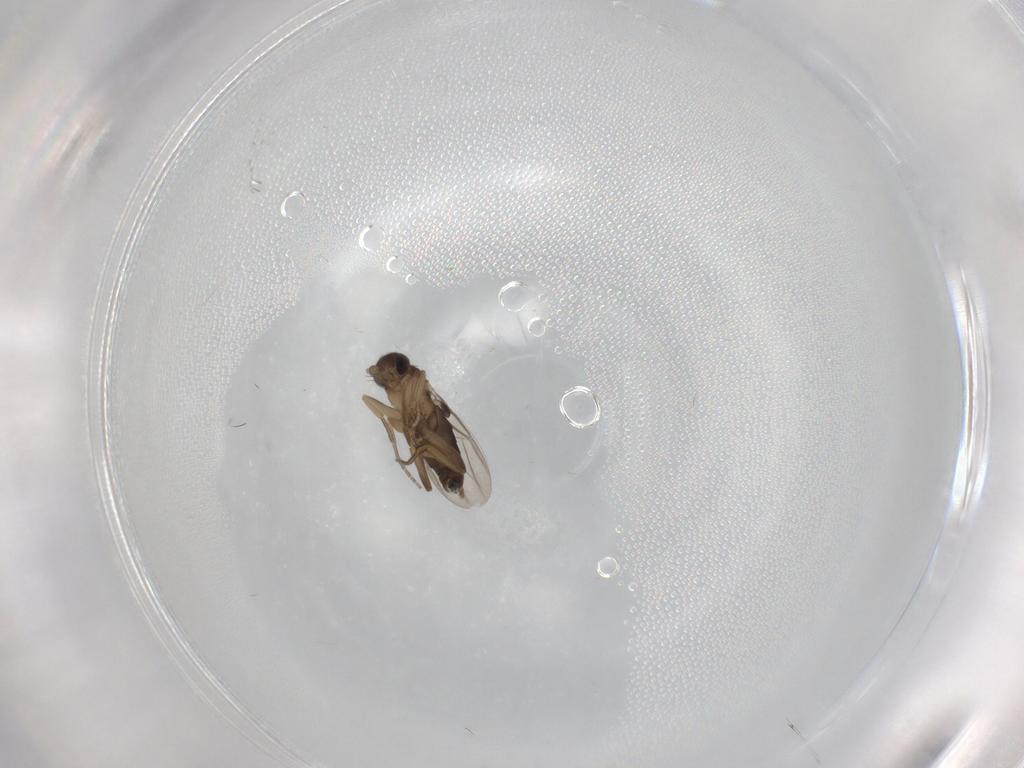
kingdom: Animalia
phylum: Arthropoda
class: Insecta
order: Diptera
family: Phoridae
